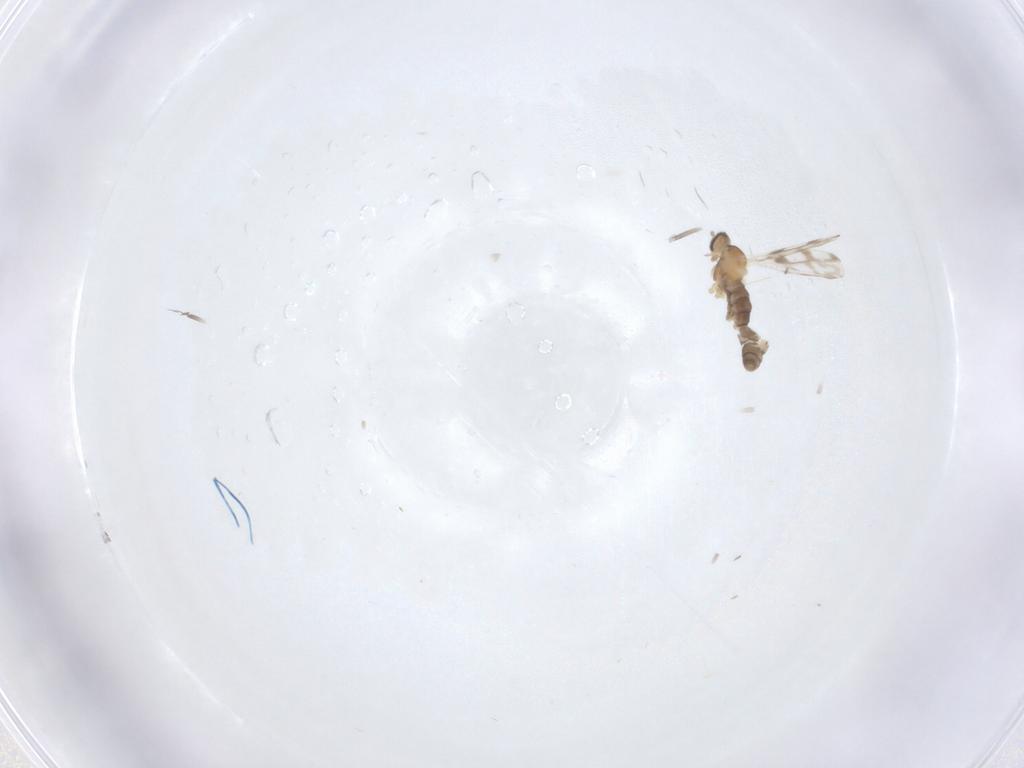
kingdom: Animalia
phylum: Arthropoda
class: Insecta
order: Diptera
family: Cecidomyiidae
